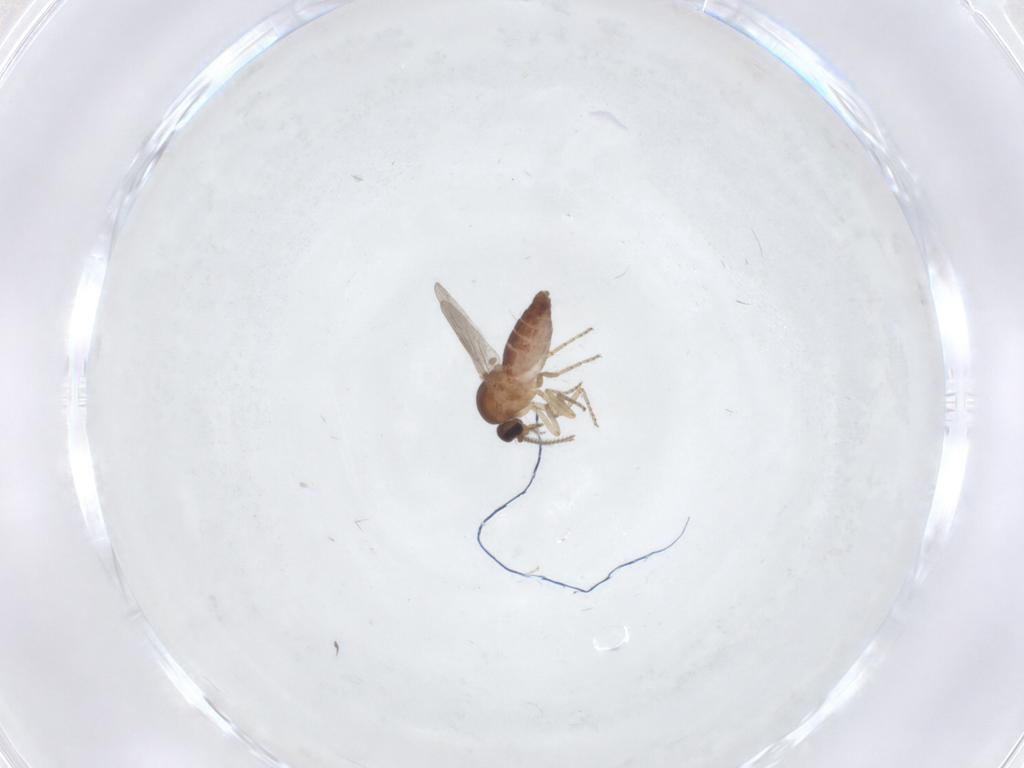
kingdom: Animalia
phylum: Arthropoda
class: Insecta
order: Diptera
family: Ceratopogonidae
